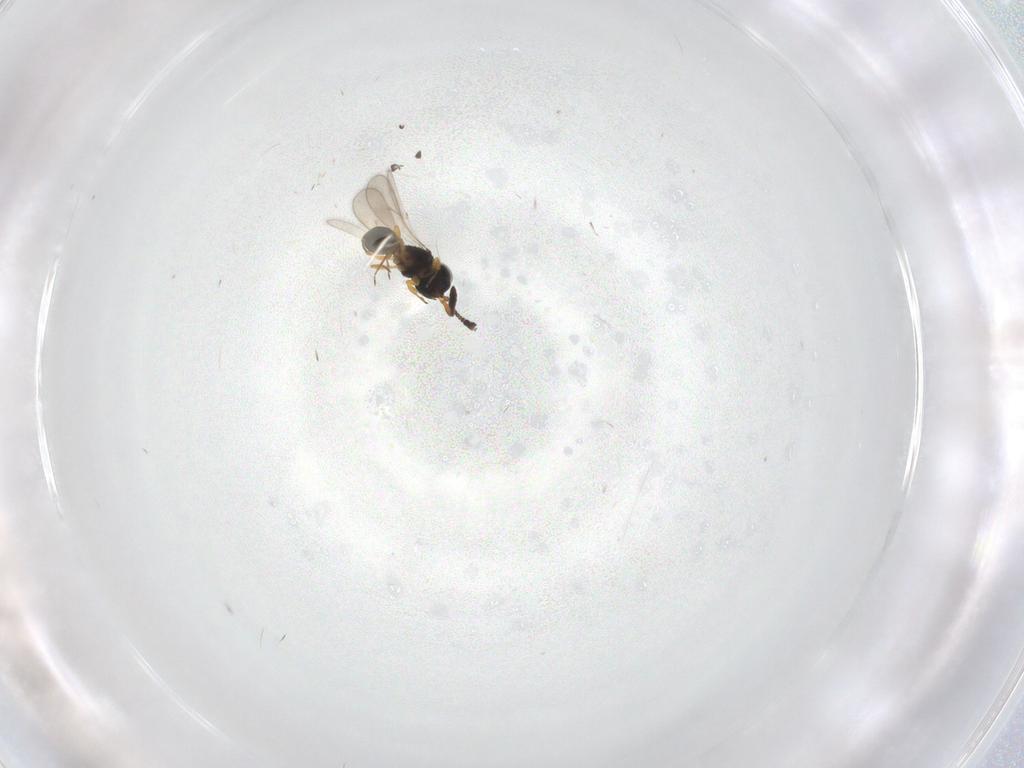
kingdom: Animalia
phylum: Arthropoda
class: Insecta
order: Hymenoptera
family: Scelionidae
